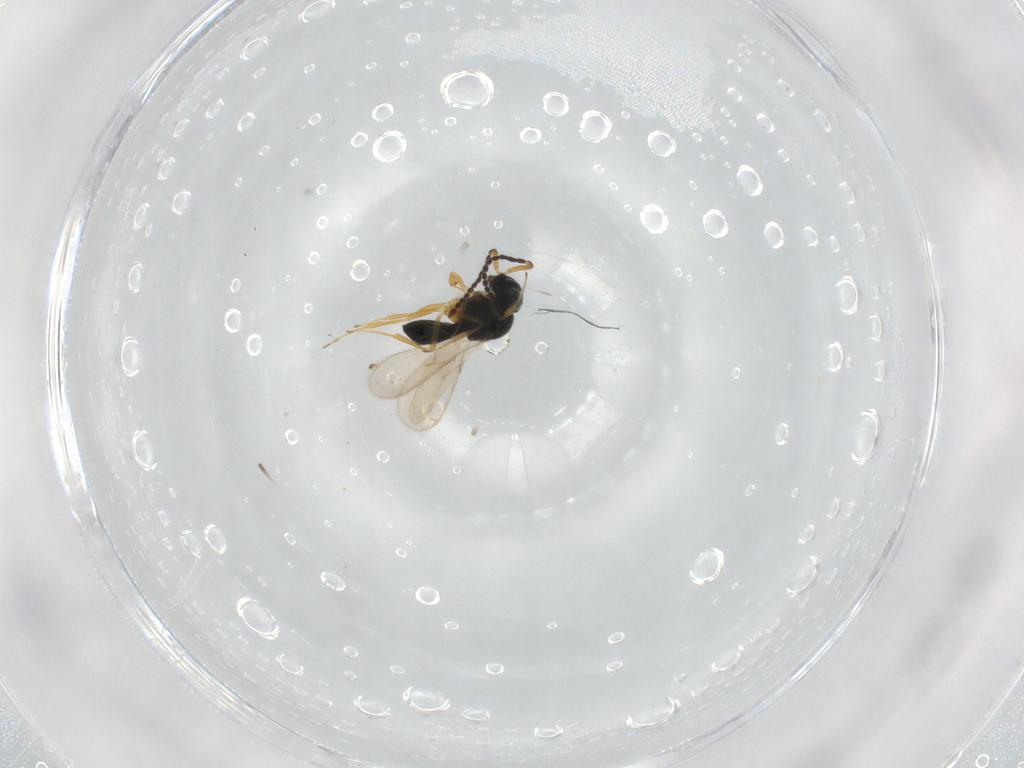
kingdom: Animalia
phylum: Arthropoda
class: Insecta
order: Hymenoptera
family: Scelionidae
